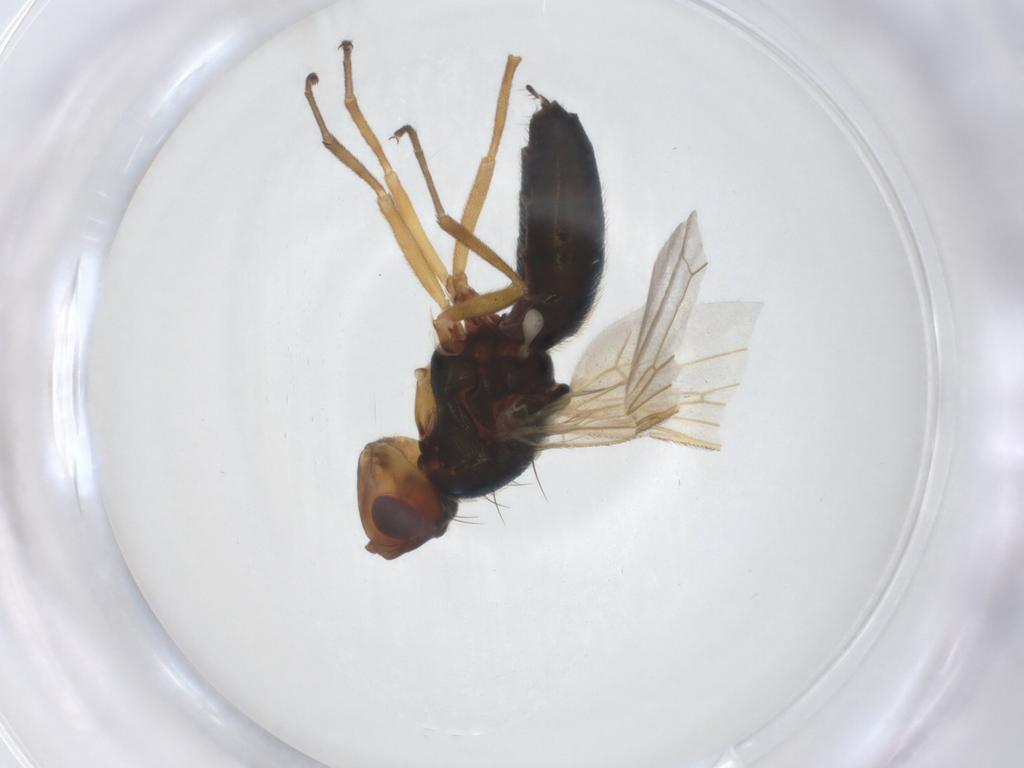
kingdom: Animalia
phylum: Arthropoda
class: Insecta
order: Diptera
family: Chironomidae
